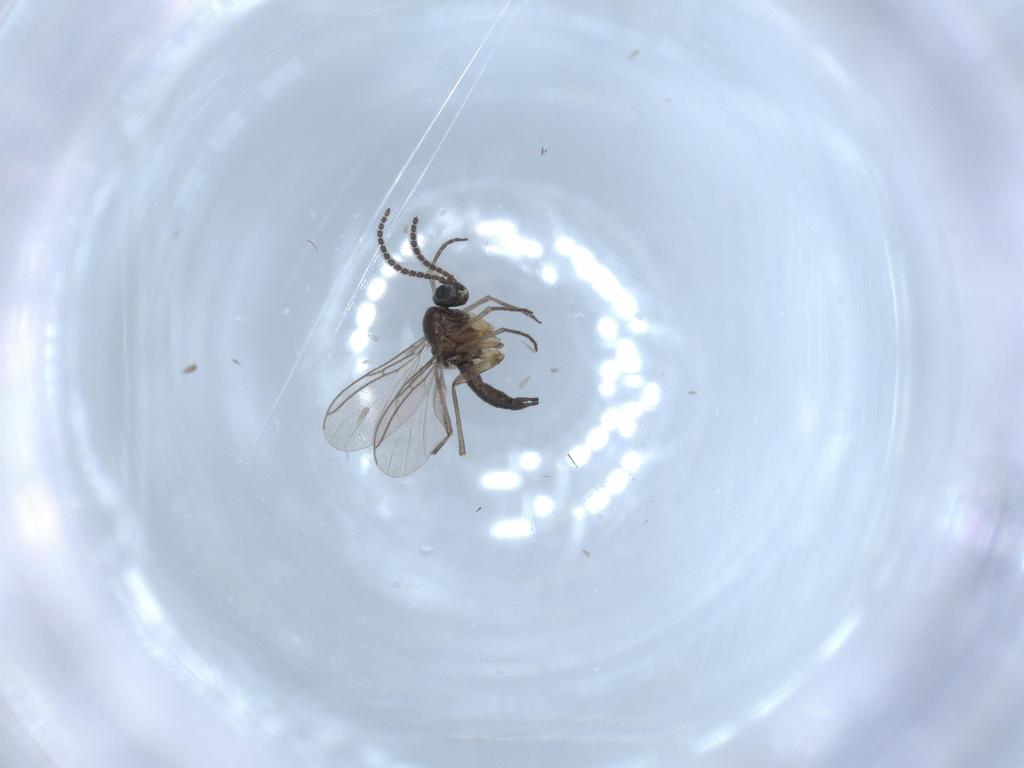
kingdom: Animalia
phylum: Arthropoda
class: Insecta
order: Diptera
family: Sciaridae
